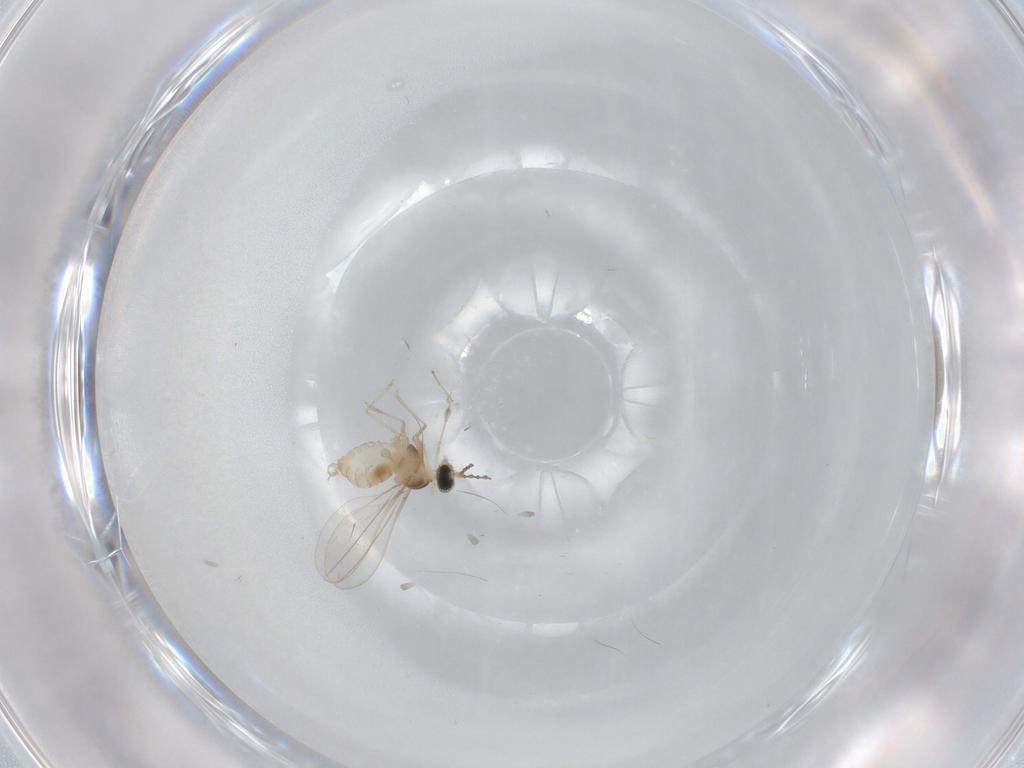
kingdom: Animalia
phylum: Arthropoda
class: Insecta
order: Diptera
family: Cecidomyiidae
